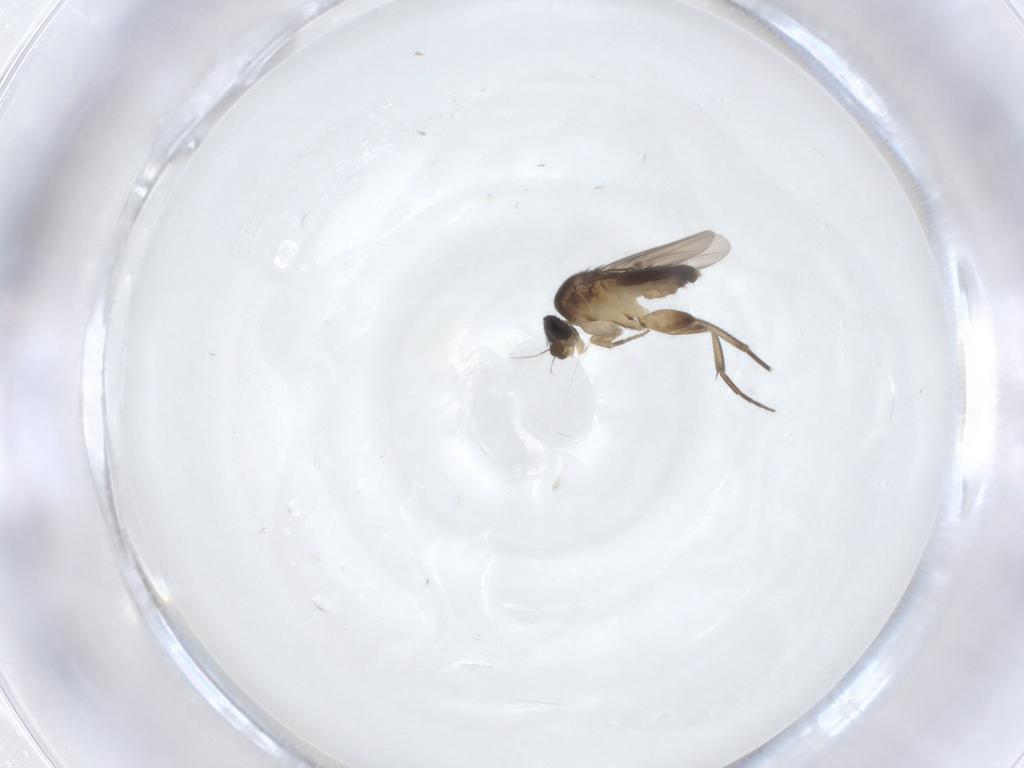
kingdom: Animalia
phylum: Arthropoda
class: Insecta
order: Diptera
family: Phoridae
